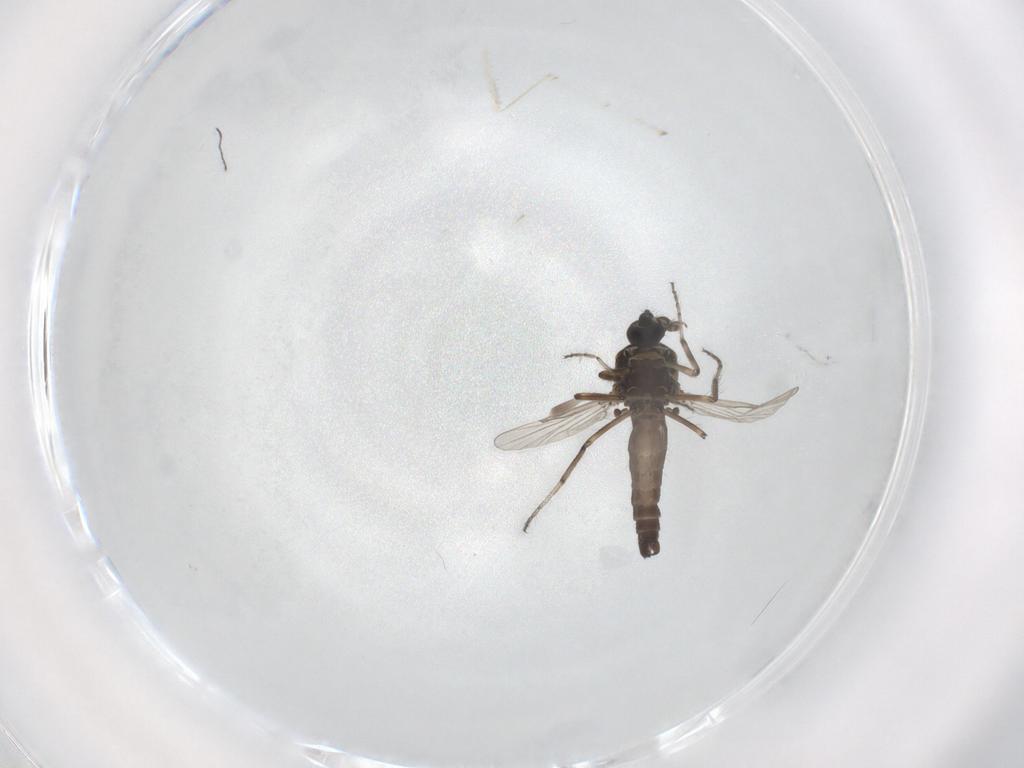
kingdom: Animalia
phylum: Arthropoda
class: Insecta
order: Diptera
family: Ceratopogonidae
